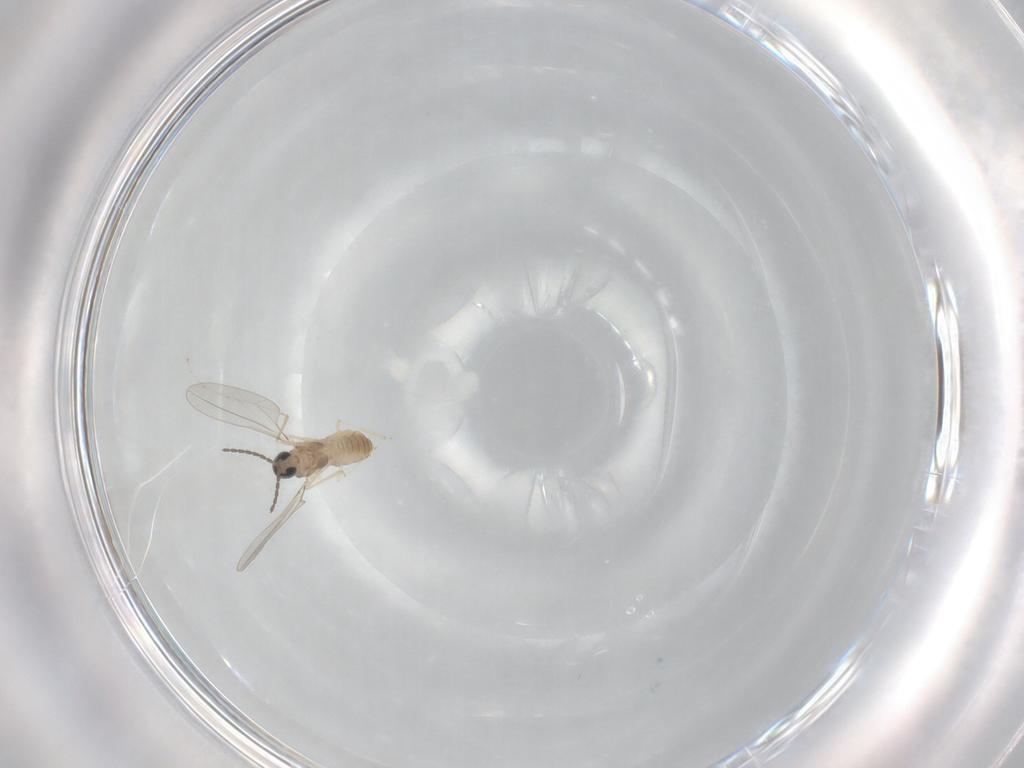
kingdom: Animalia
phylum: Arthropoda
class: Insecta
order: Diptera
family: Cecidomyiidae
